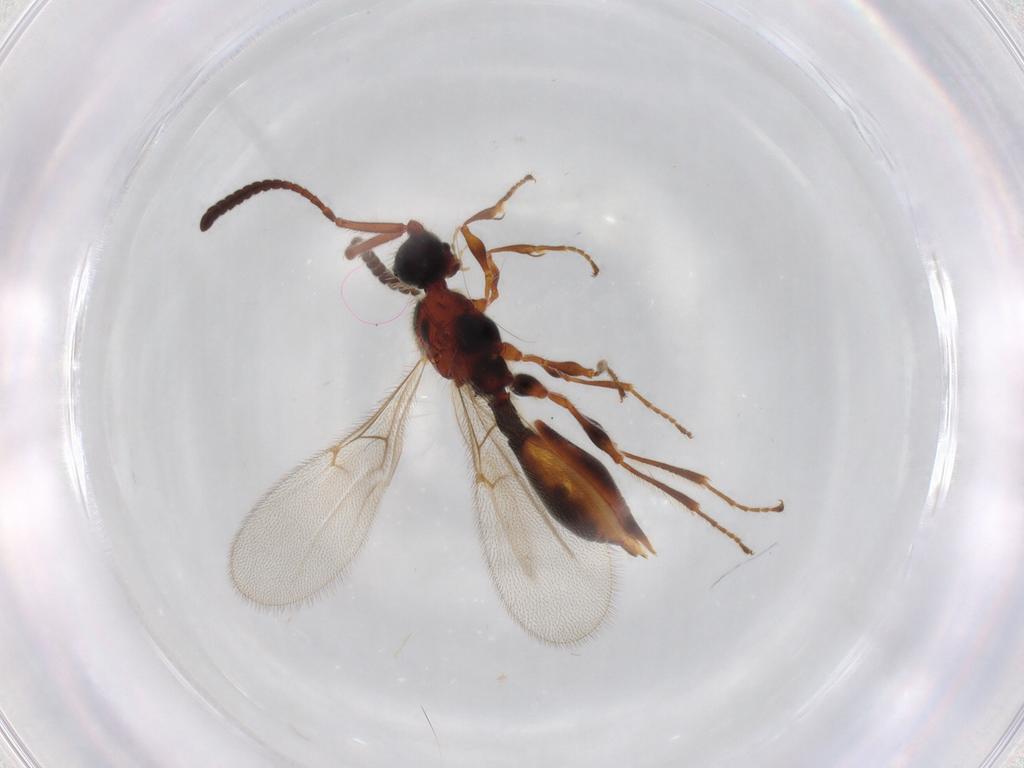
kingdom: Animalia
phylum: Arthropoda
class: Insecta
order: Hymenoptera
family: Diapriidae
